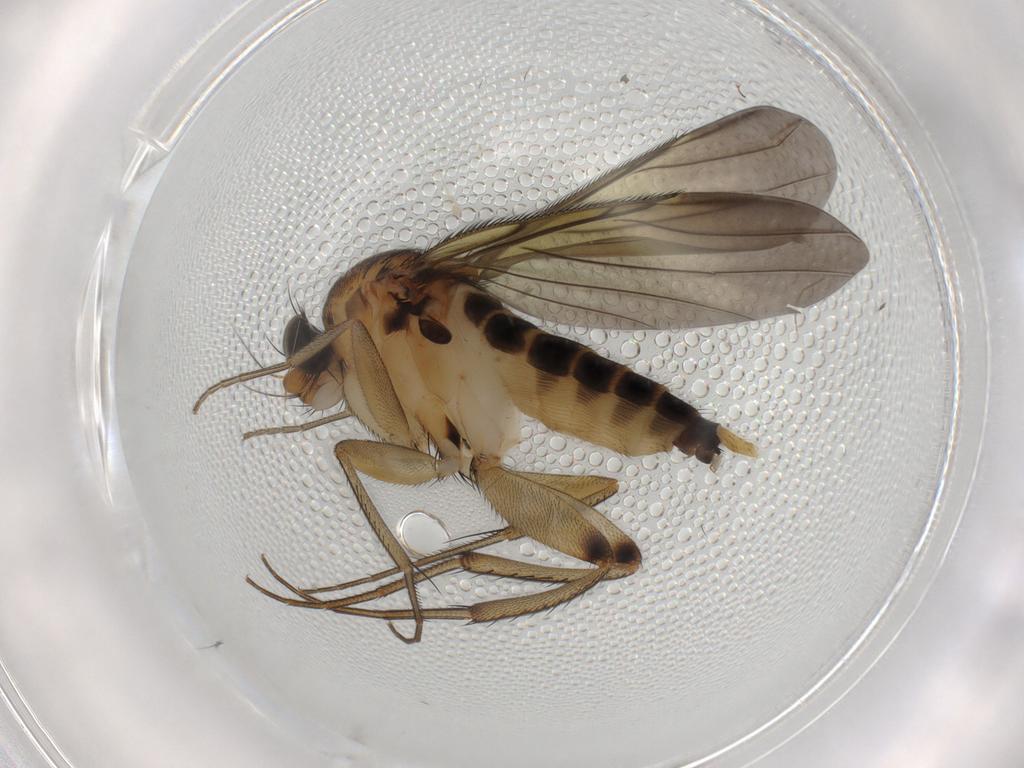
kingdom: Animalia
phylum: Arthropoda
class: Insecta
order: Diptera
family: Phoridae
